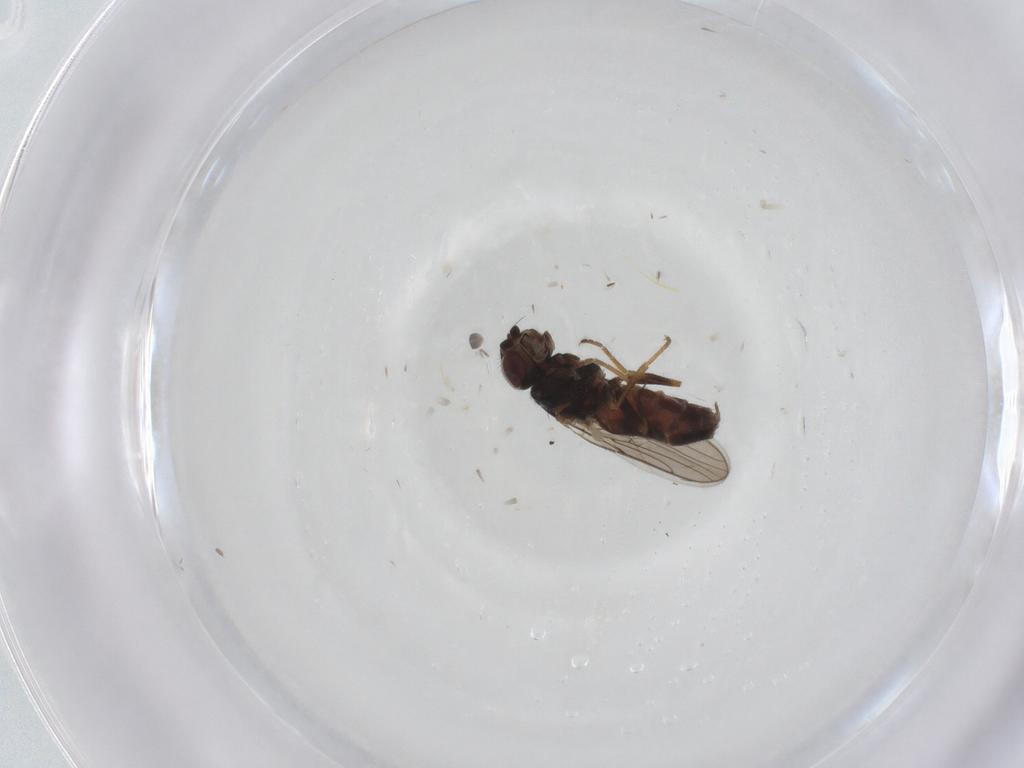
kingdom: Animalia
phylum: Arthropoda
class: Insecta
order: Diptera
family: Chloropidae
